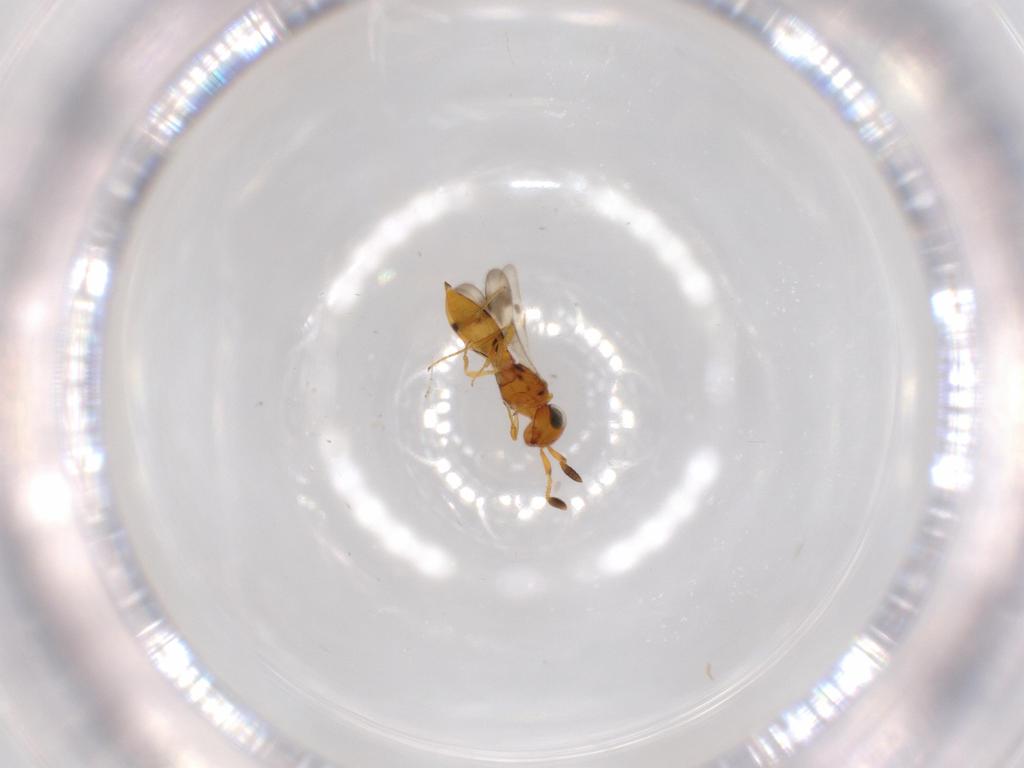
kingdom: Animalia
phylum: Arthropoda
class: Insecta
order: Hymenoptera
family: Scelionidae
